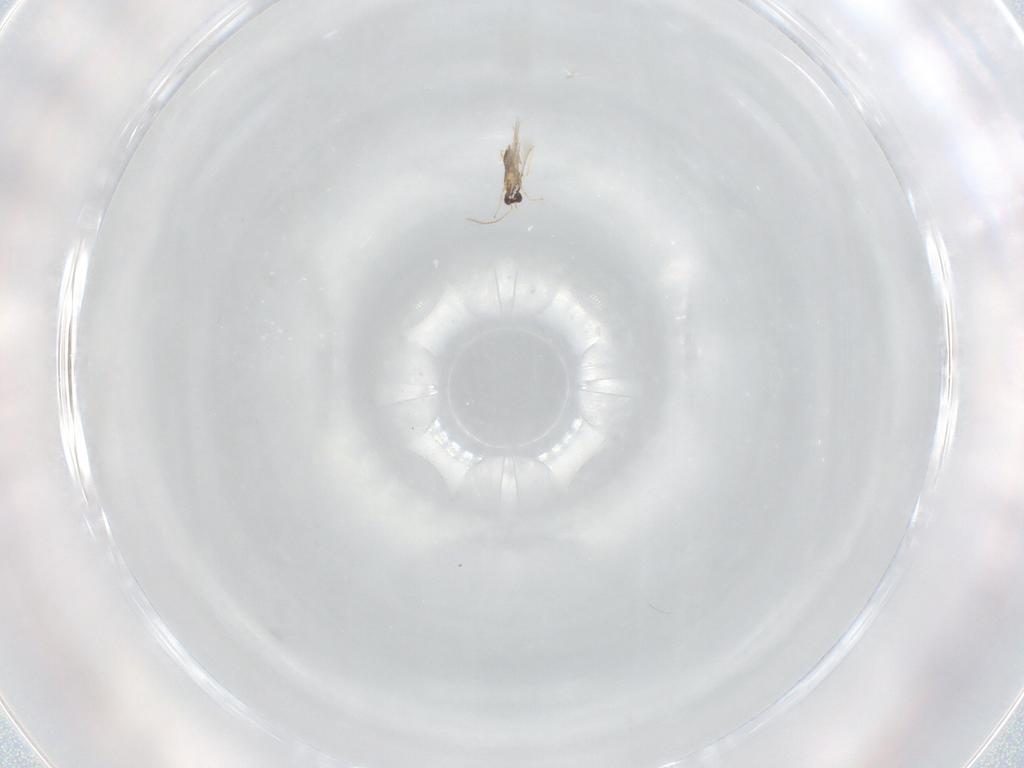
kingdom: Animalia
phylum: Arthropoda
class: Insecta
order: Hymenoptera
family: Mymaridae
